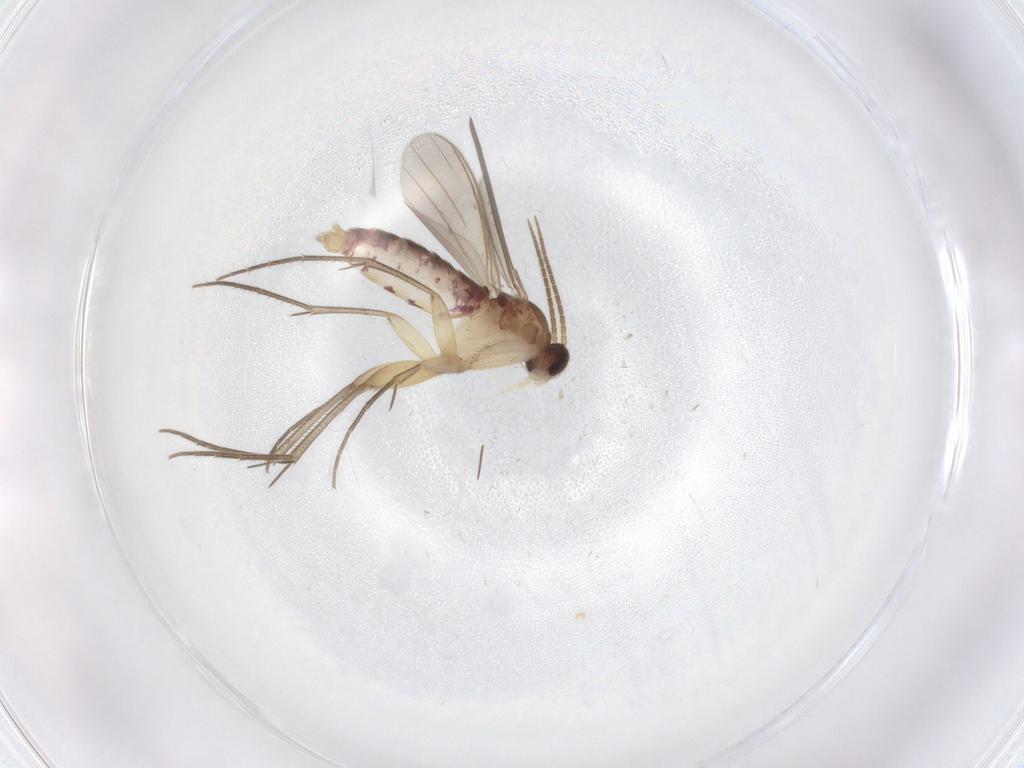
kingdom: Animalia
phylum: Arthropoda
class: Insecta
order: Diptera
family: Mycetophilidae
